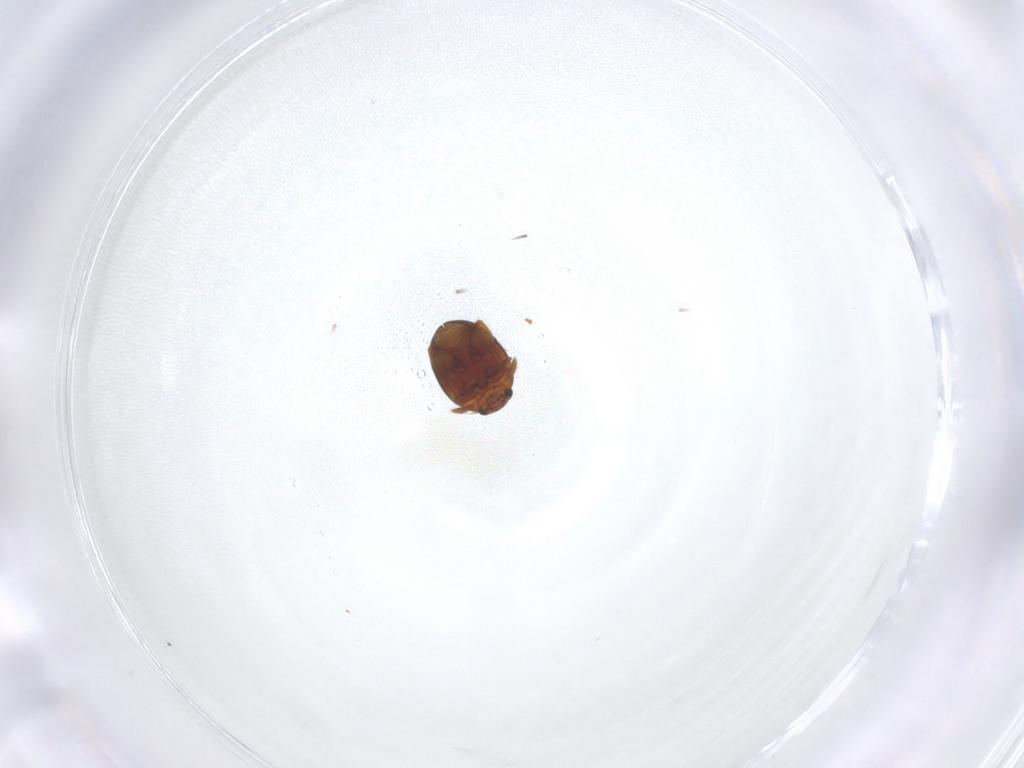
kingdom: Animalia
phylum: Arthropoda
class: Insecta
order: Coleoptera
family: Chrysomelidae
